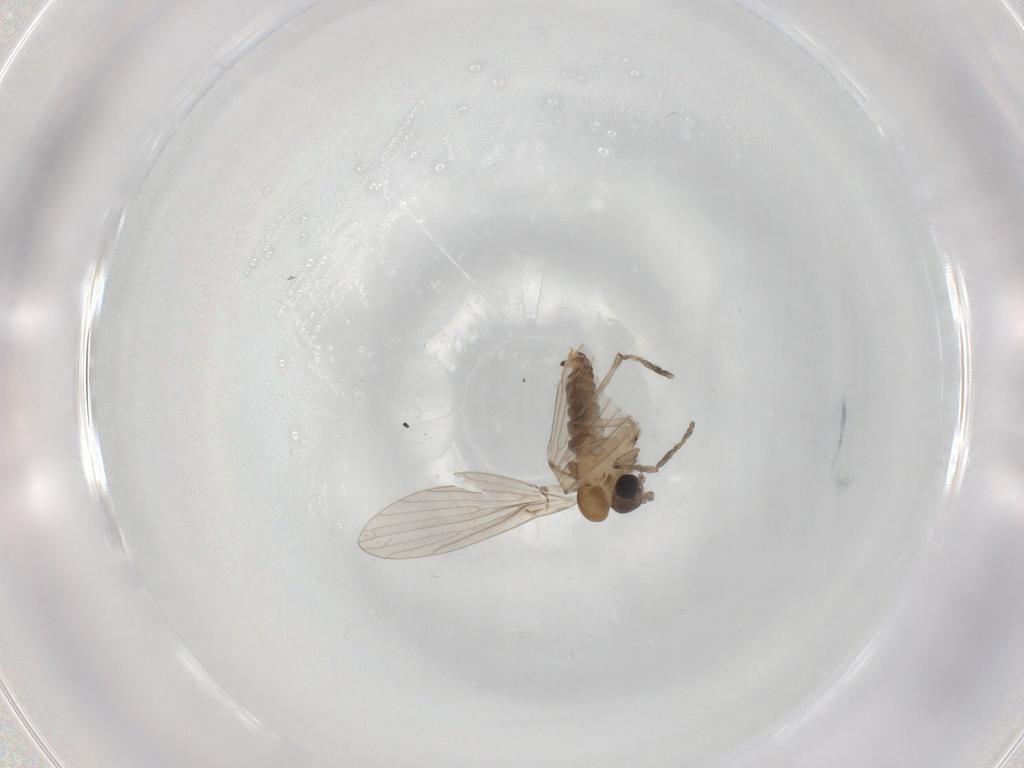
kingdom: Animalia
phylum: Arthropoda
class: Insecta
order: Diptera
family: Psychodidae
